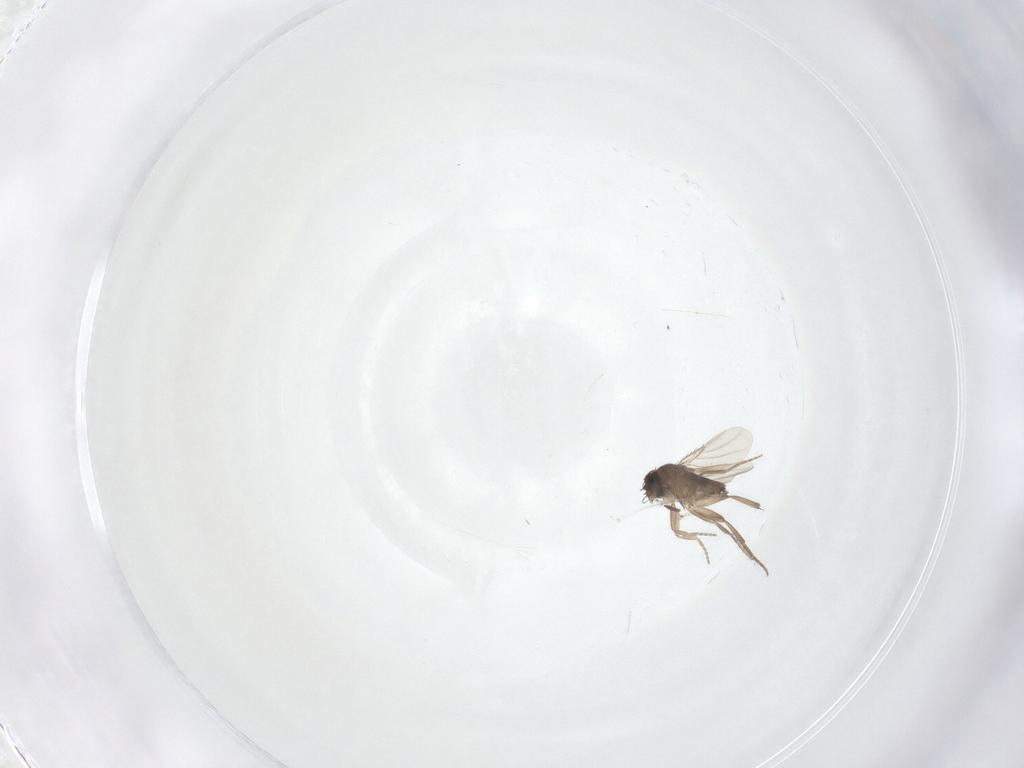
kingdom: Animalia
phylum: Arthropoda
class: Insecta
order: Diptera
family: Phoridae
